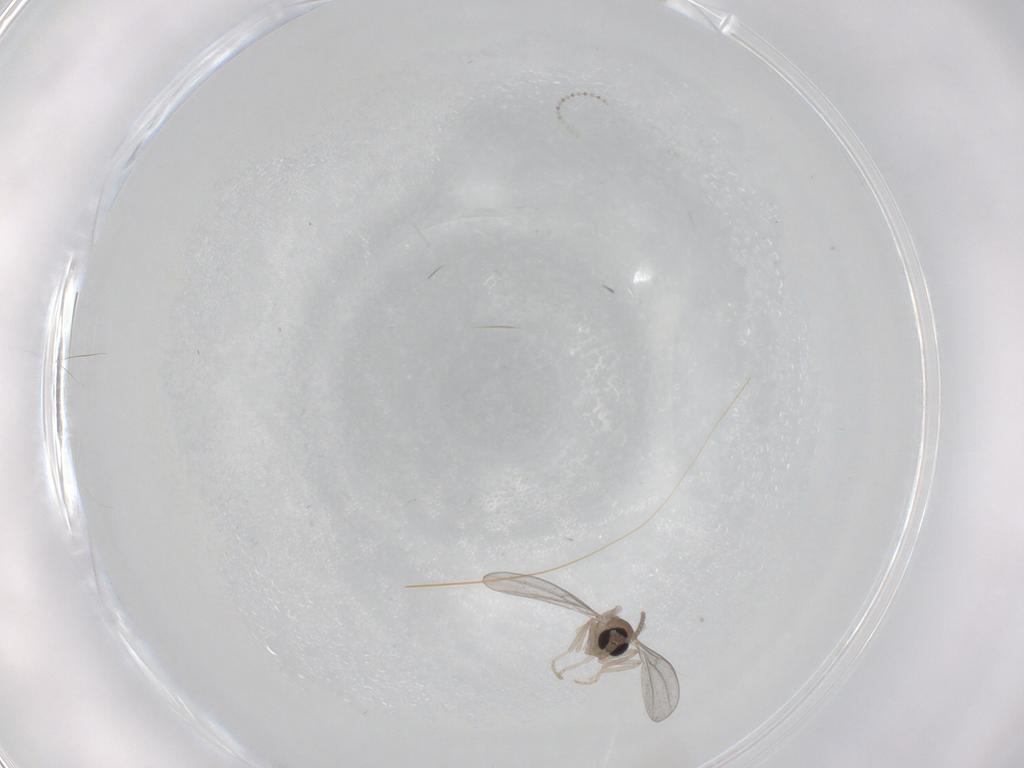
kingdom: Animalia
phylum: Arthropoda
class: Insecta
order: Diptera
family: Cecidomyiidae
